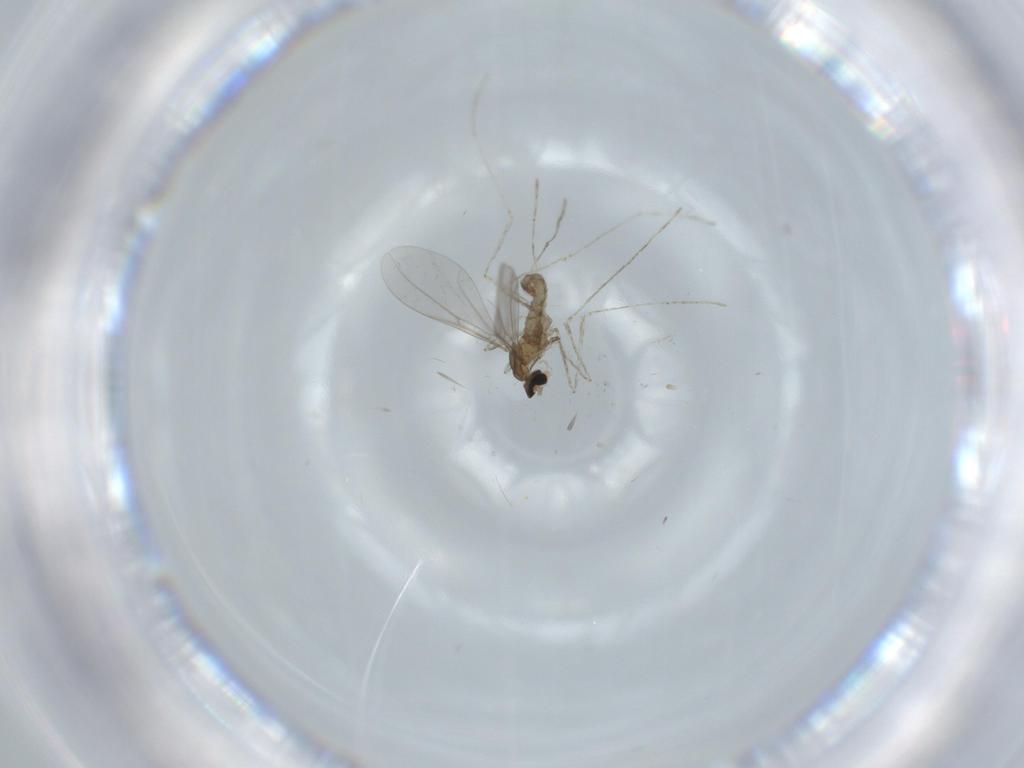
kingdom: Animalia
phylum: Arthropoda
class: Insecta
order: Diptera
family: Cecidomyiidae
